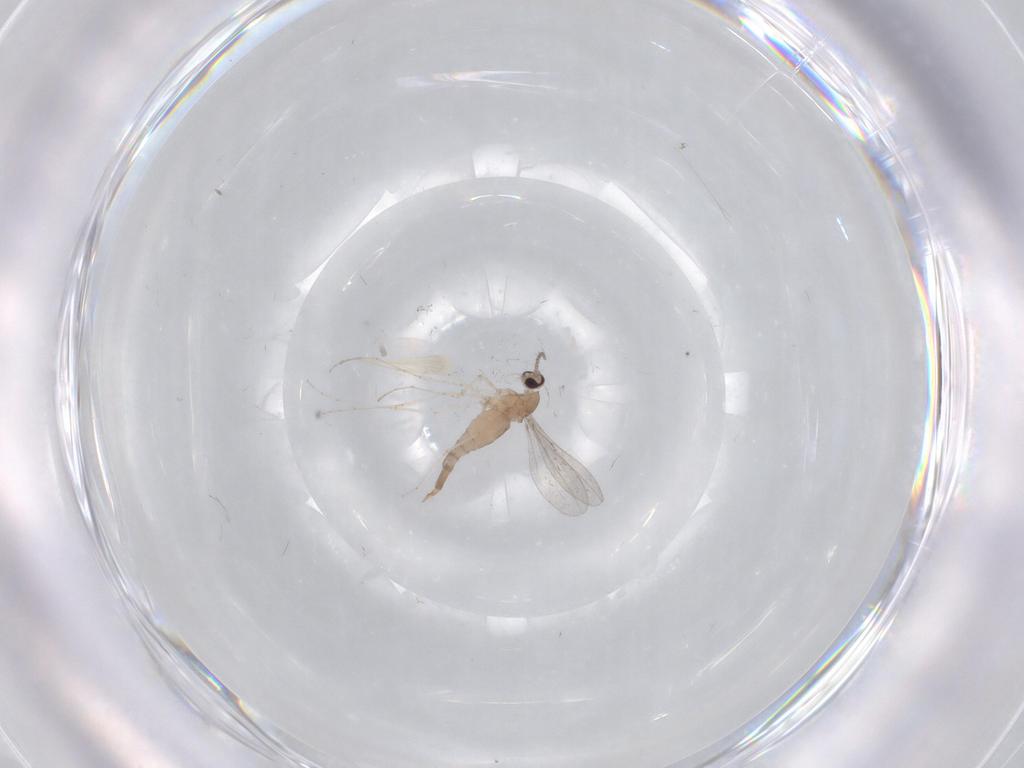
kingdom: Animalia
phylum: Arthropoda
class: Insecta
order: Diptera
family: Cecidomyiidae
